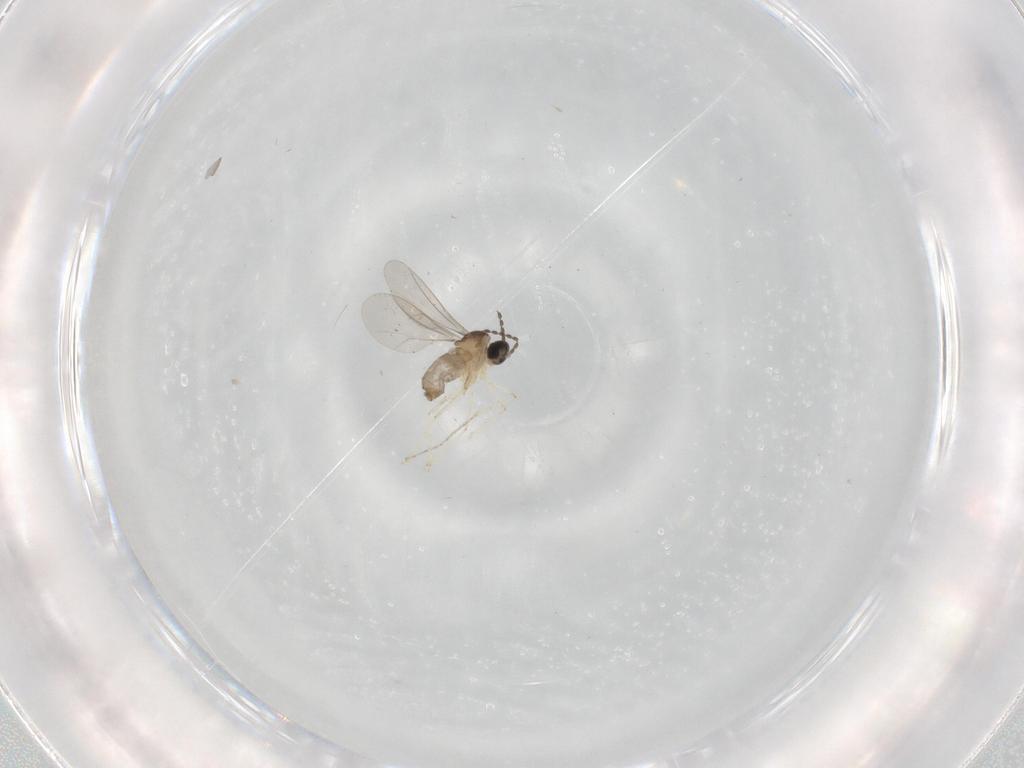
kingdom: Animalia
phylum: Arthropoda
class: Insecta
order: Diptera
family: Cecidomyiidae
